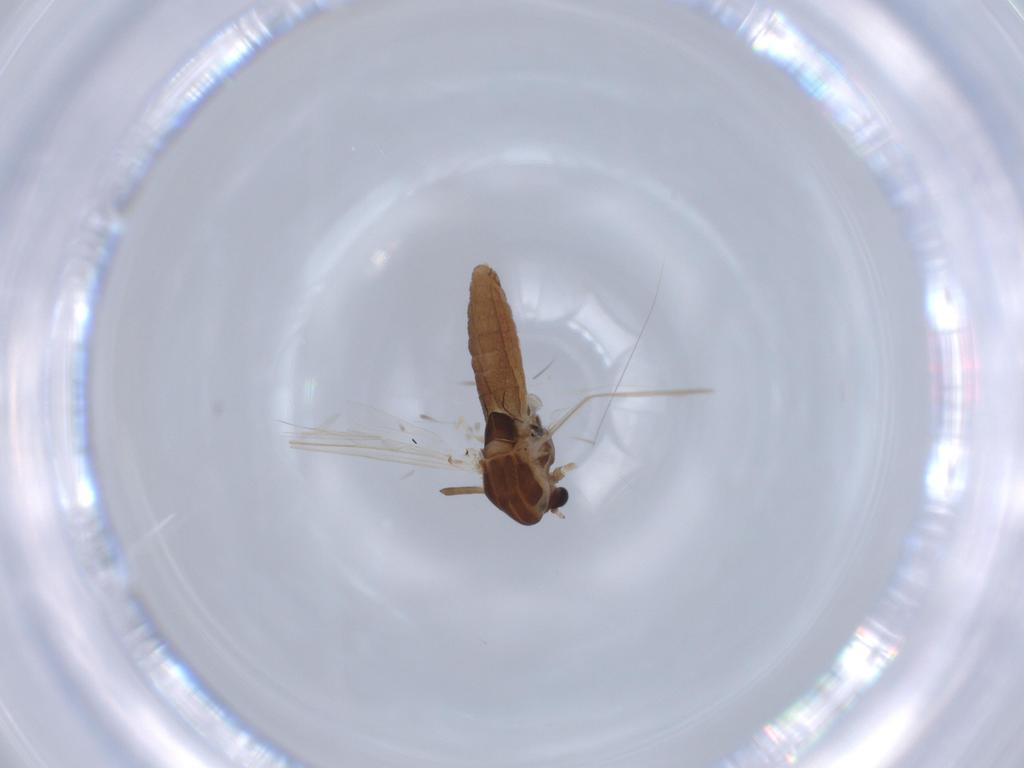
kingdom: Animalia
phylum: Arthropoda
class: Insecta
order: Diptera
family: Chironomidae
